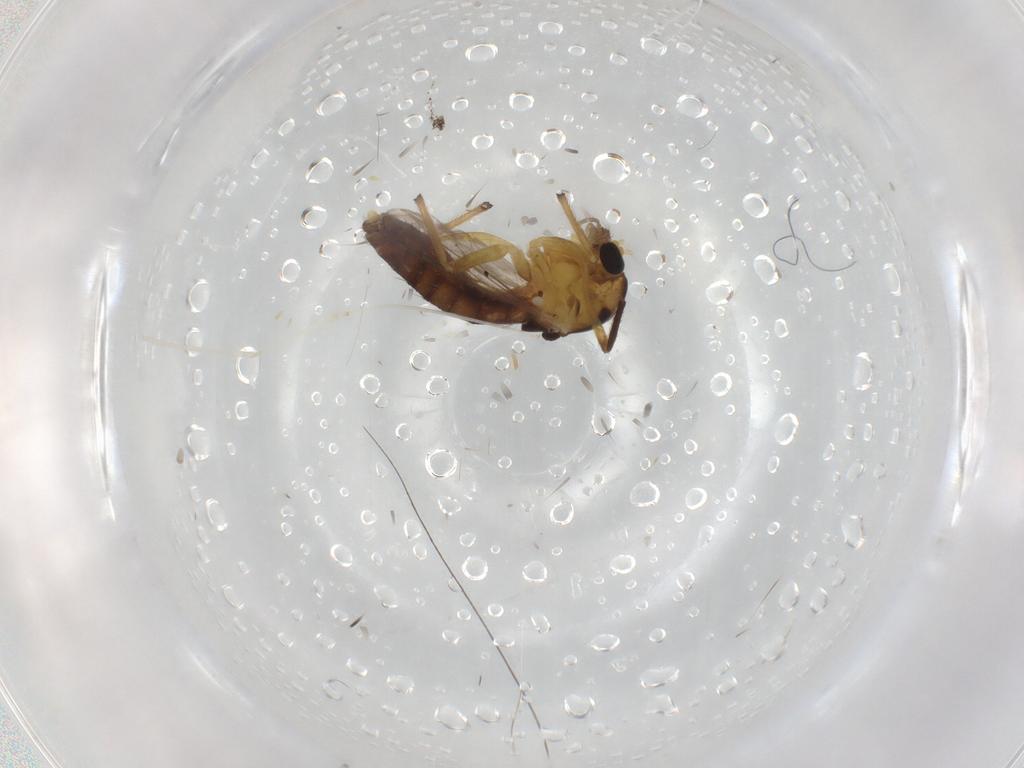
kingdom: Animalia
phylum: Arthropoda
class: Insecta
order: Diptera
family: Chironomidae
